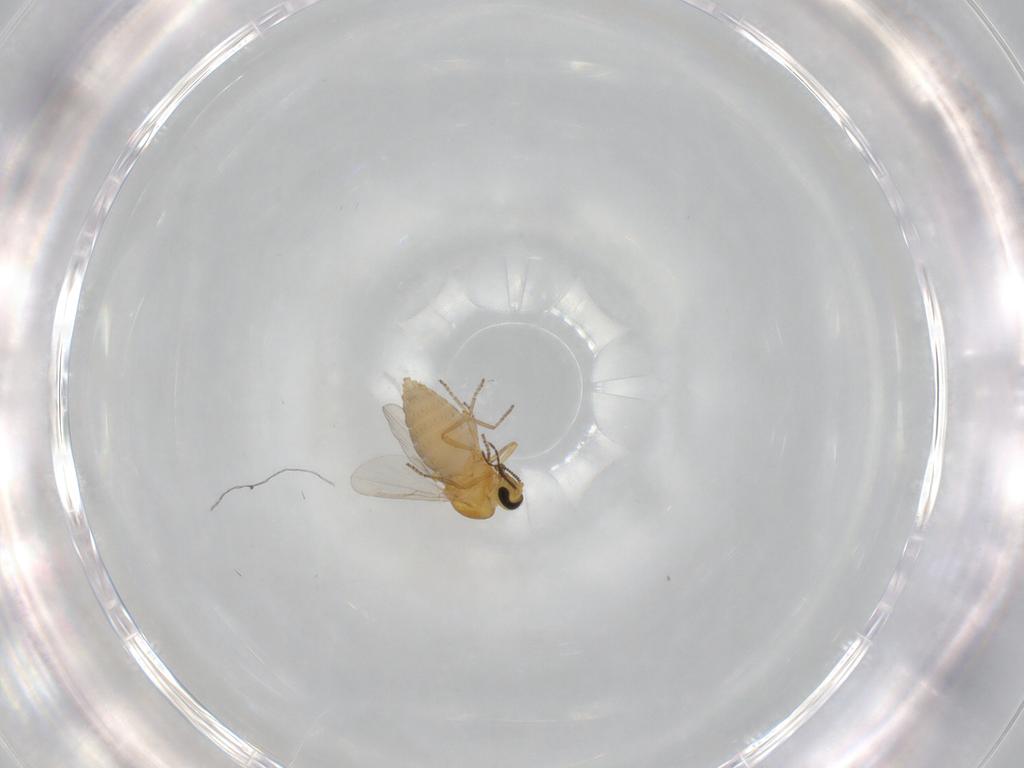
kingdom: Animalia
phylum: Arthropoda
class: Insecta
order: Diptera
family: Ceratopogonidae
